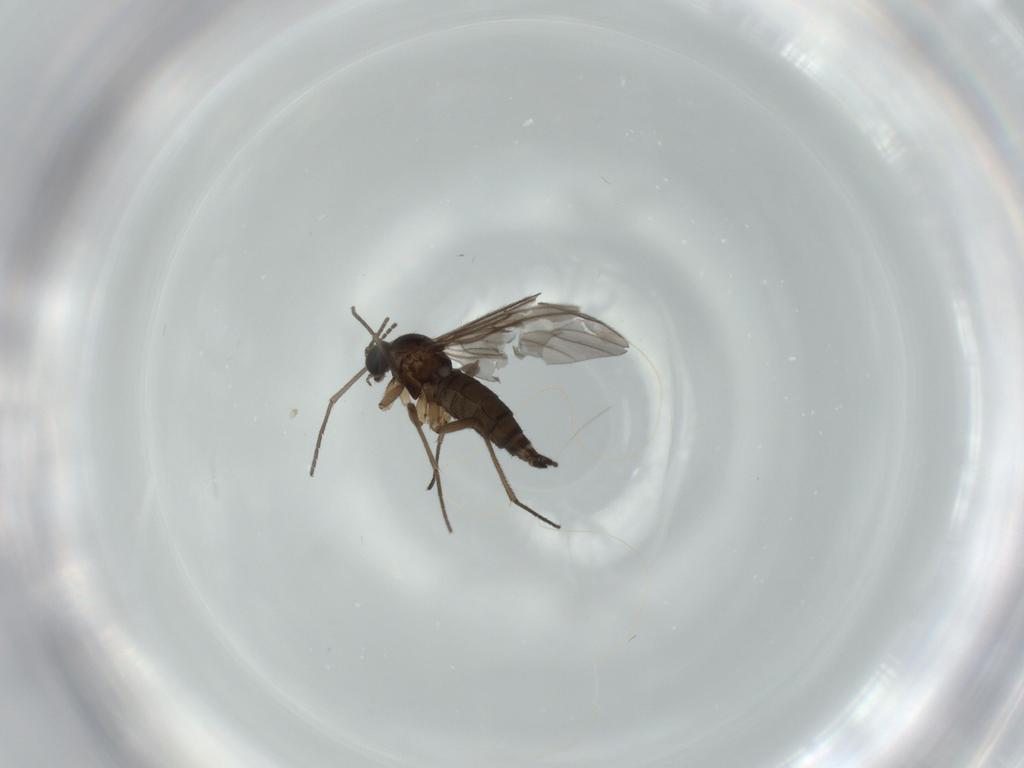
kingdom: Animalia
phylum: Arthropoda
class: Insecta
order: Diptera
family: Sciaridae
